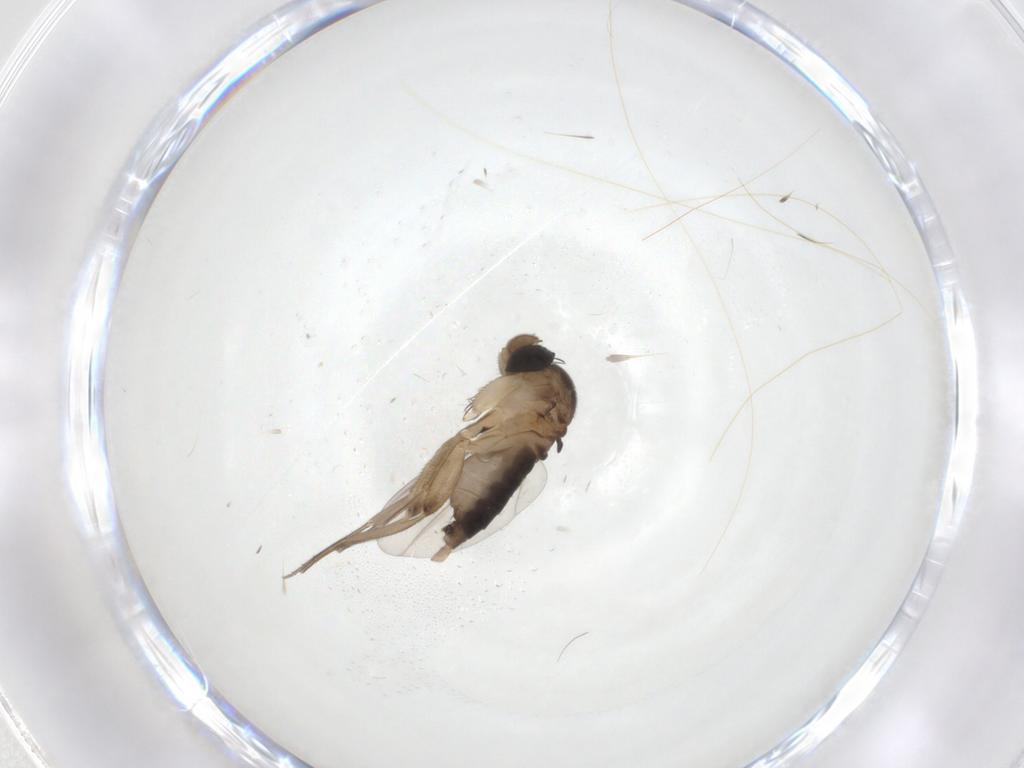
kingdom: Animalia
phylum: Arthropoda
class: Insecta
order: Diptera
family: Phoridae
